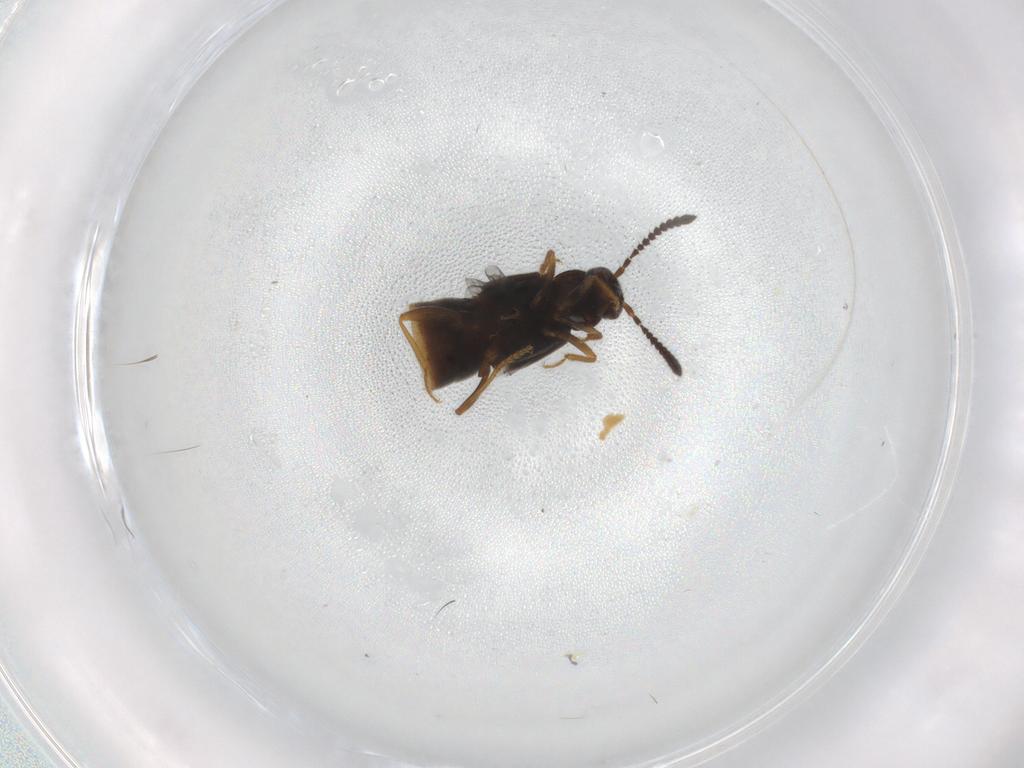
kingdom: Animalia
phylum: Arthropoda
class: Insecta
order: Coleoptera
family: Staphylinidae
